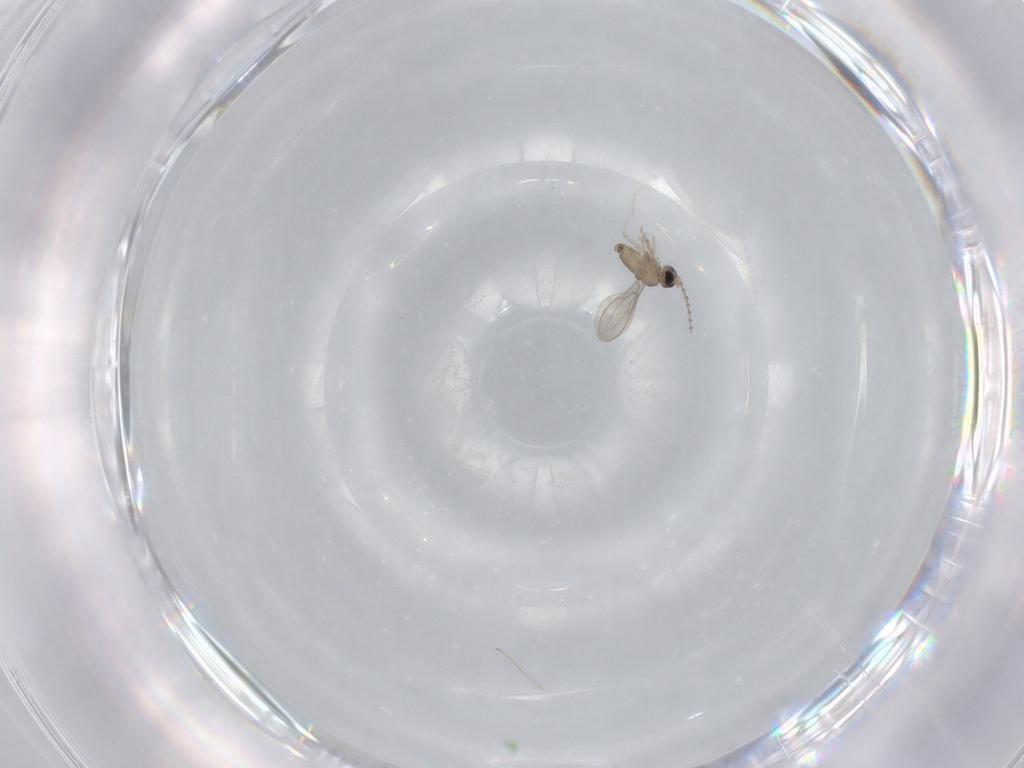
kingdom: Animalia
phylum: Arthropoda
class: Insecta
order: Diptera
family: Cecidomyiidae
